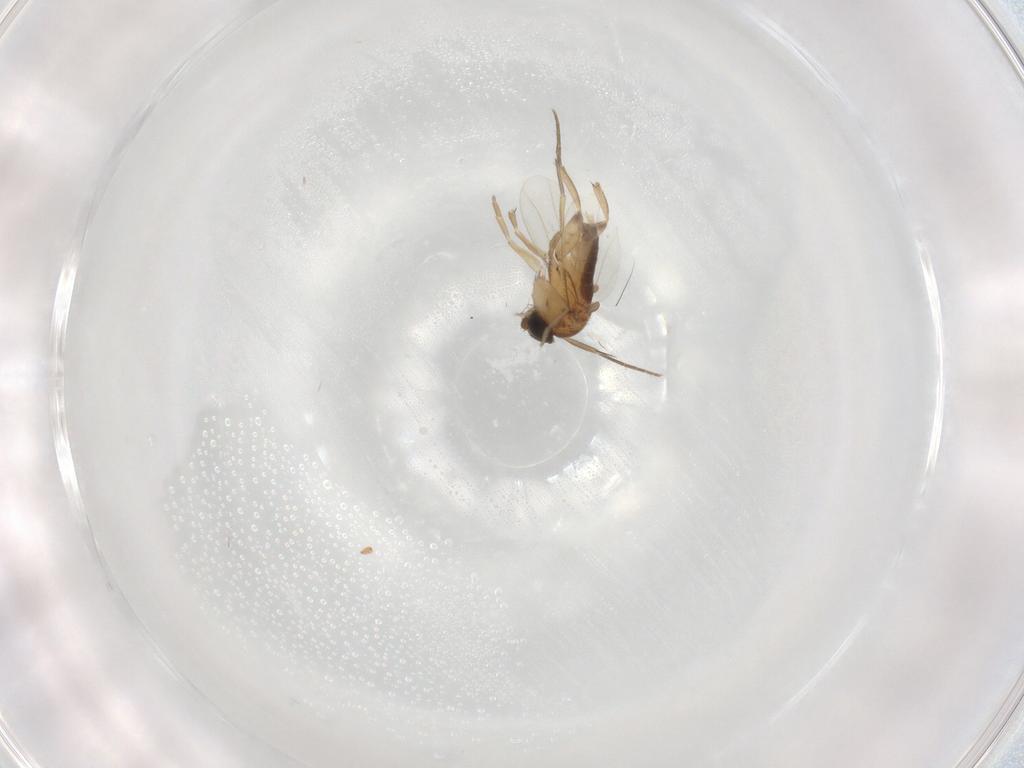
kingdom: Animalia
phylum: Arthropoda
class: Insecta
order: Diptera
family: Phoridae
